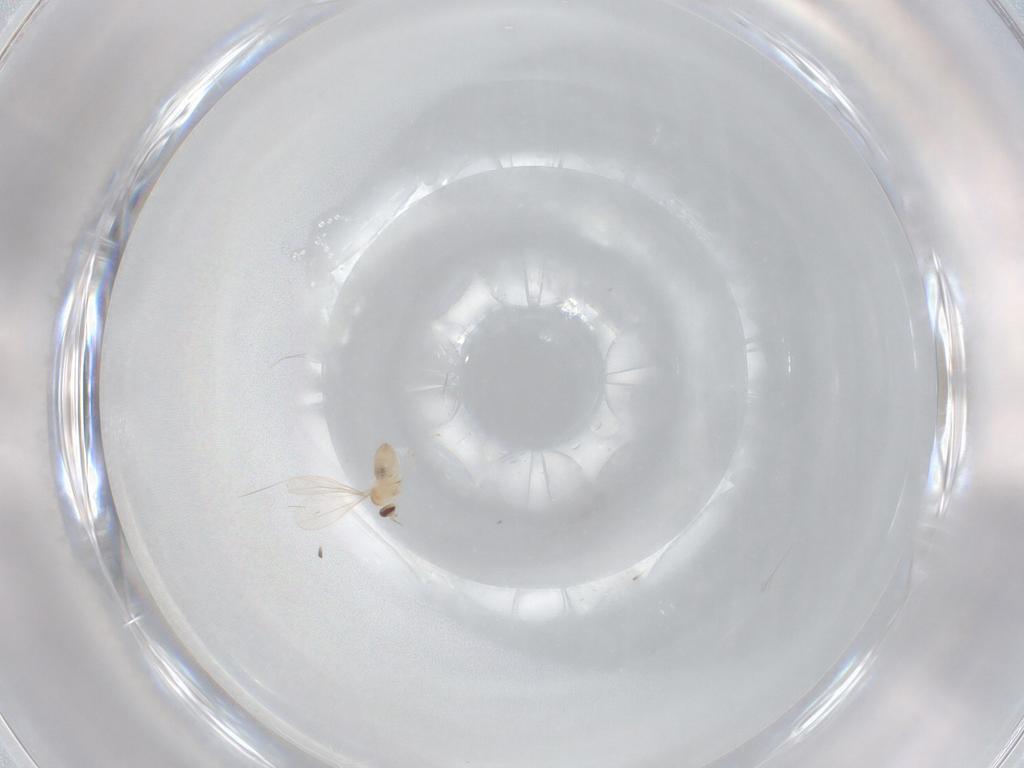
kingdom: Animalia
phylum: Arthropoda
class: Insecta
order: Diptera
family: Cecidomyiidae
